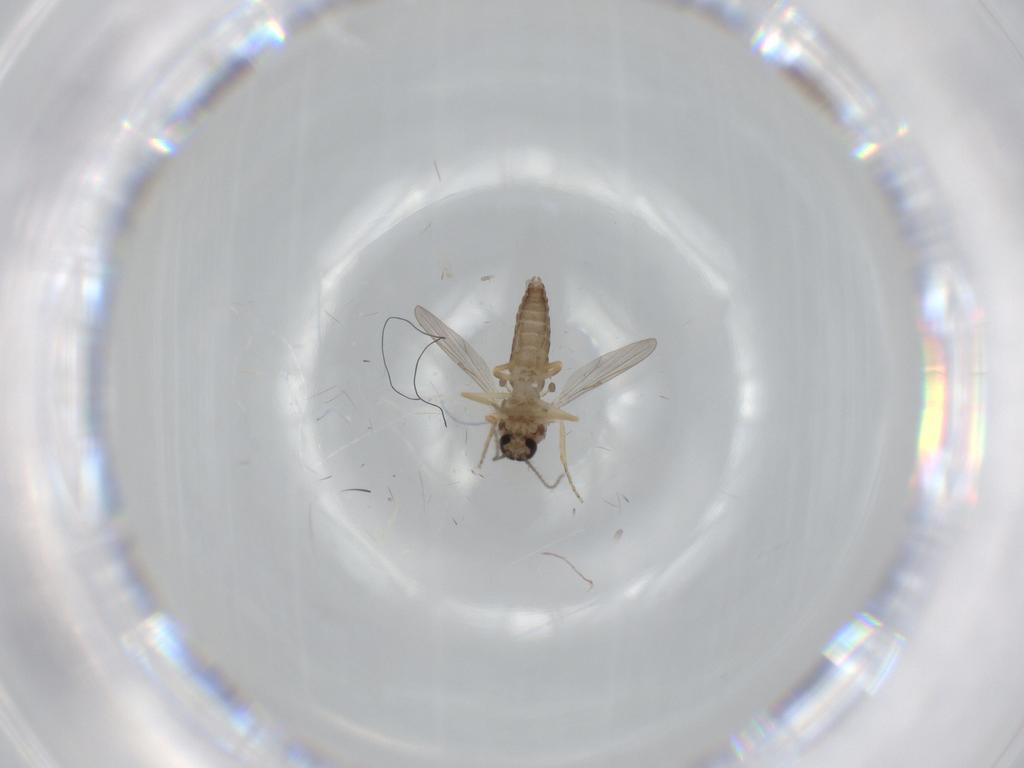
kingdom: Animalia
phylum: Arthropoda
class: Insecta
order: Diptera
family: Ceratopogonidae
